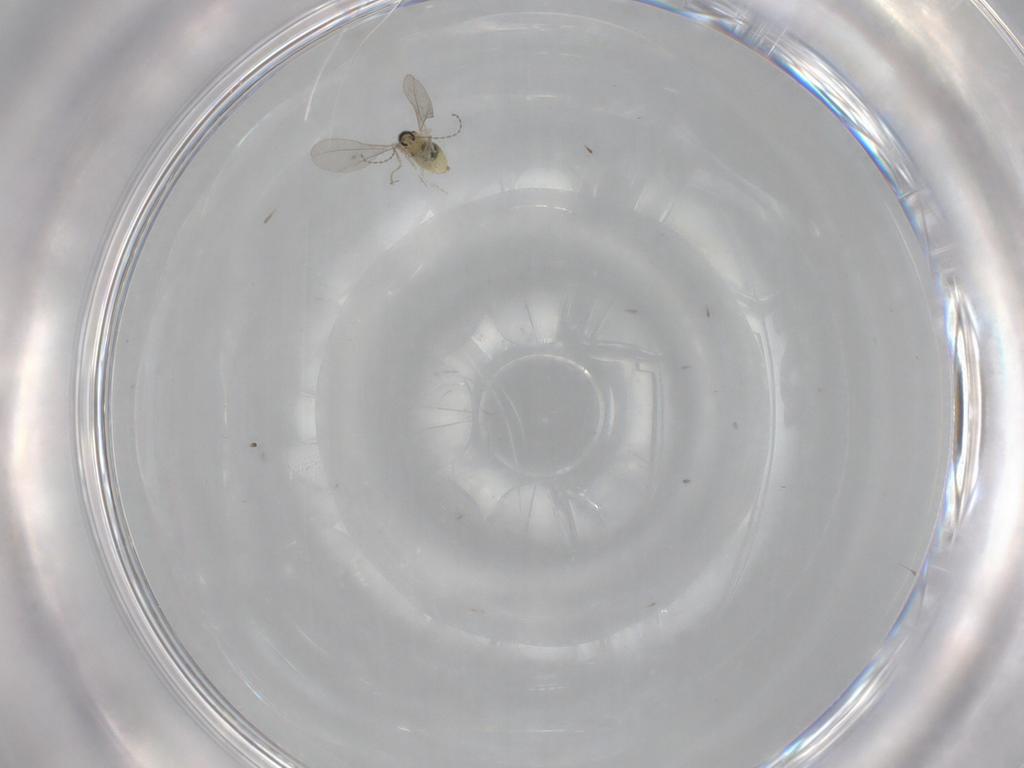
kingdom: Animalia
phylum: Arthropoda
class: Insecta
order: Diptera
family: Cecidomyiidae
